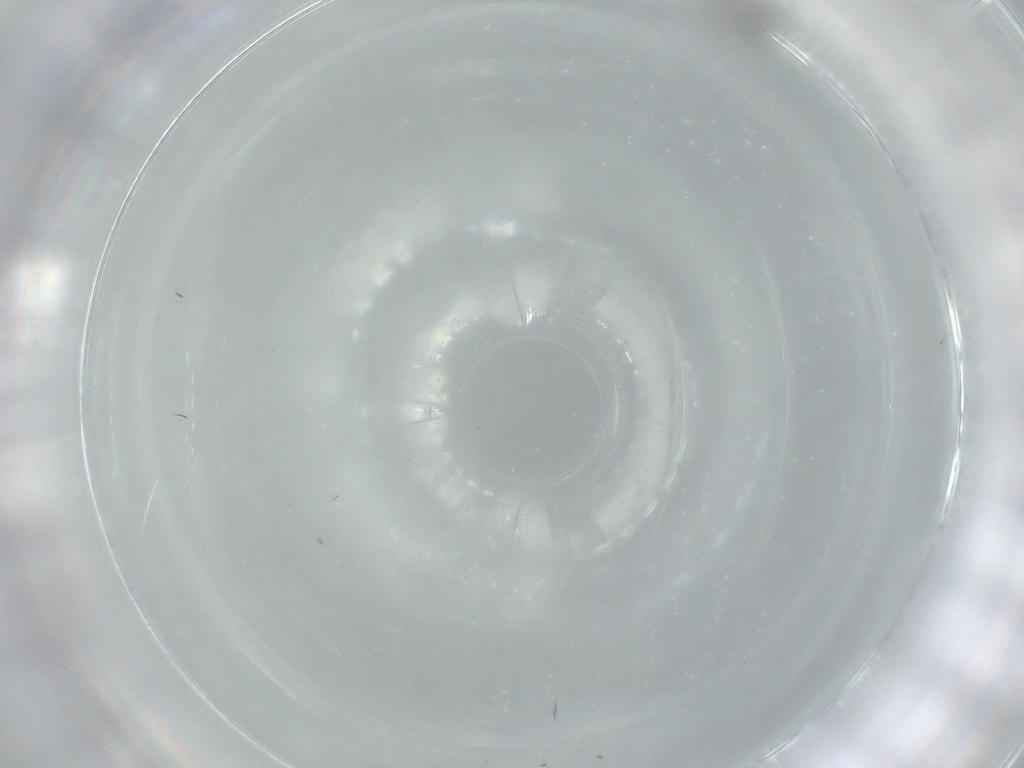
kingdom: Animalia
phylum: Arthropoda
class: Insecta
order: Diptera
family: Cecidomyiidae
